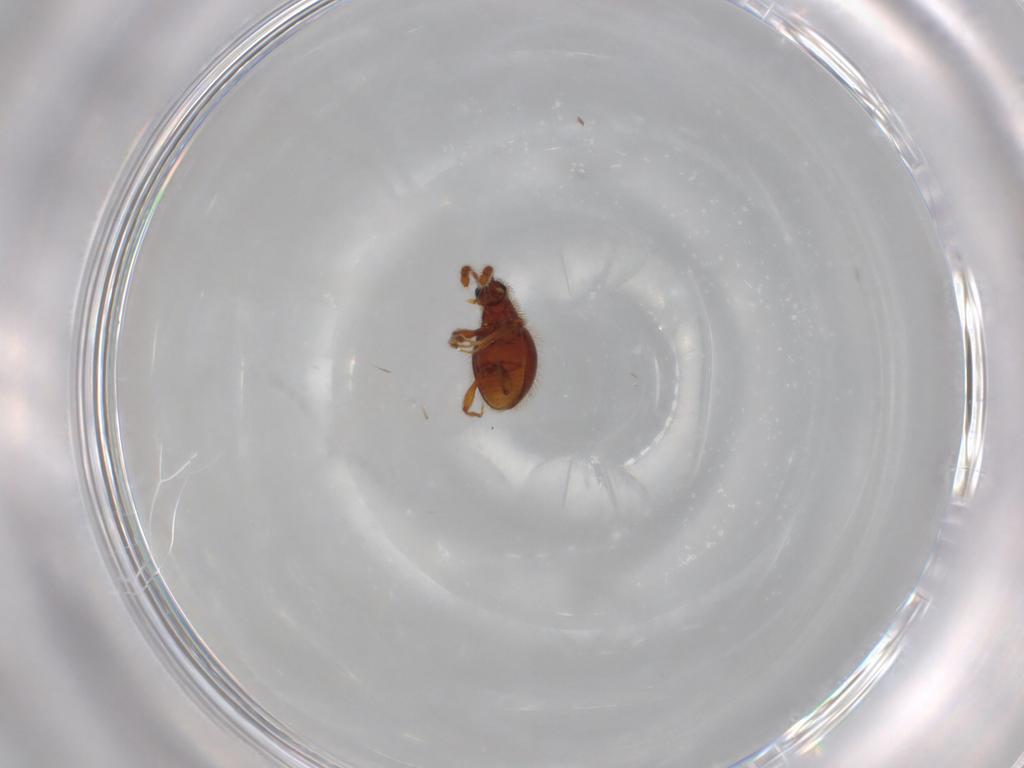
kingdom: Animalia
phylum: Arthropoda
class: Insecta
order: Coleoptera
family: Staphylinidae
